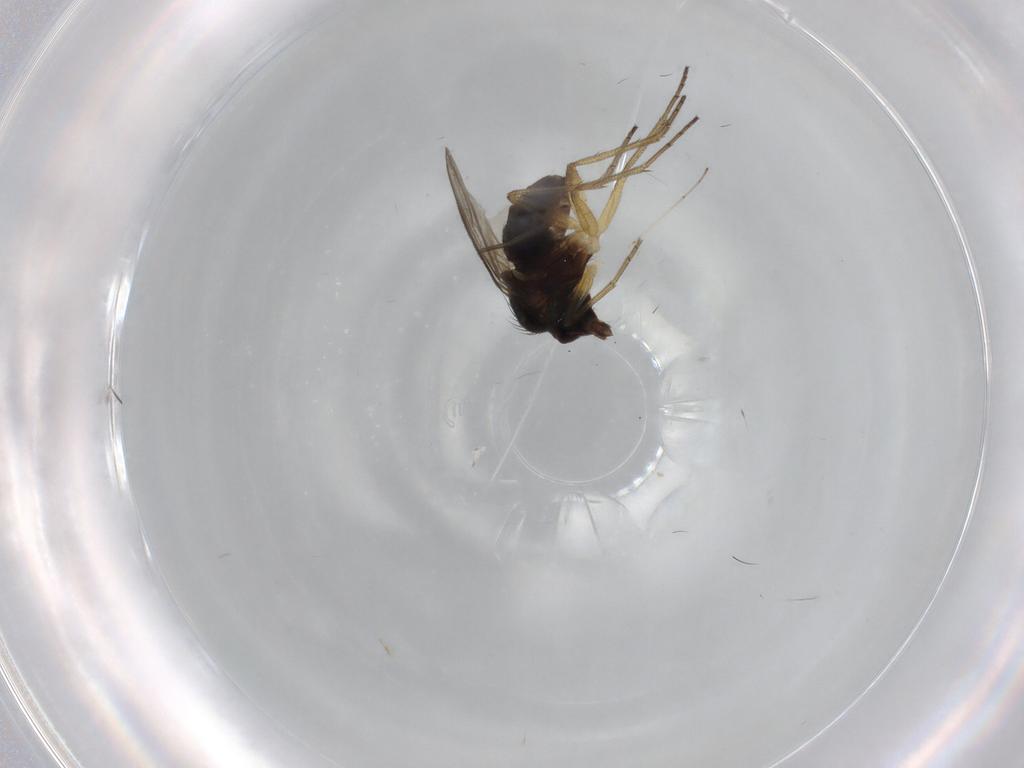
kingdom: Animalia
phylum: Arthropoda
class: Insecta
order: Diptera
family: Dolichopodidae
